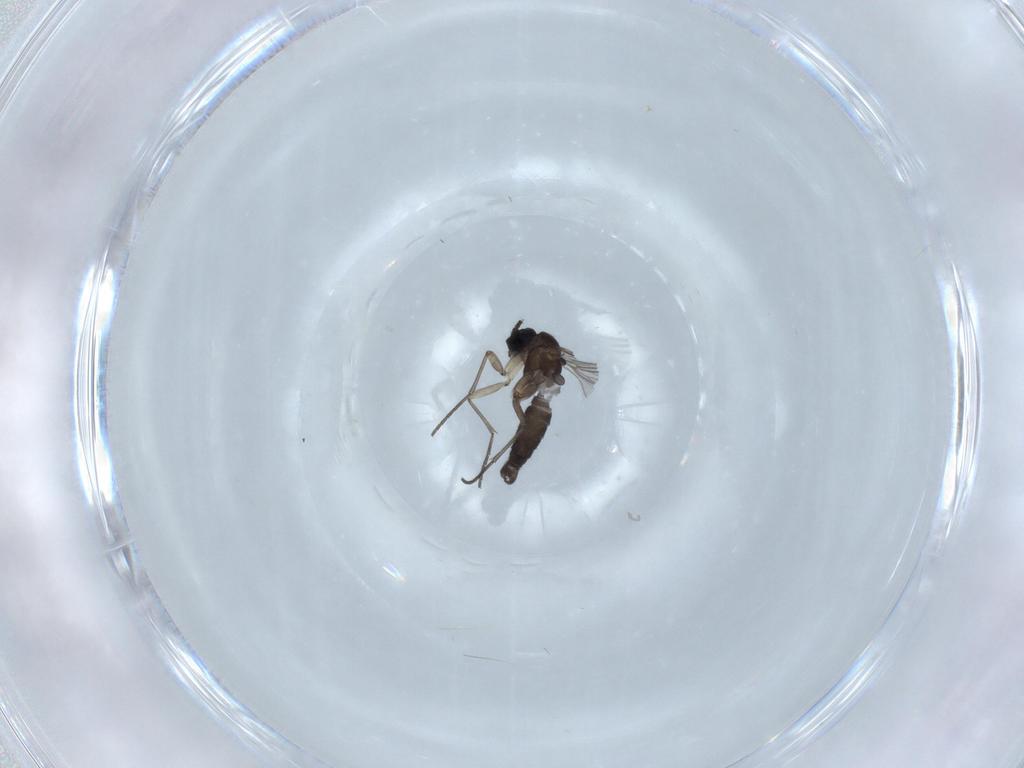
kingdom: Animalia
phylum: Arthropoda
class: Insecta
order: Diptera
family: Sciaridae
